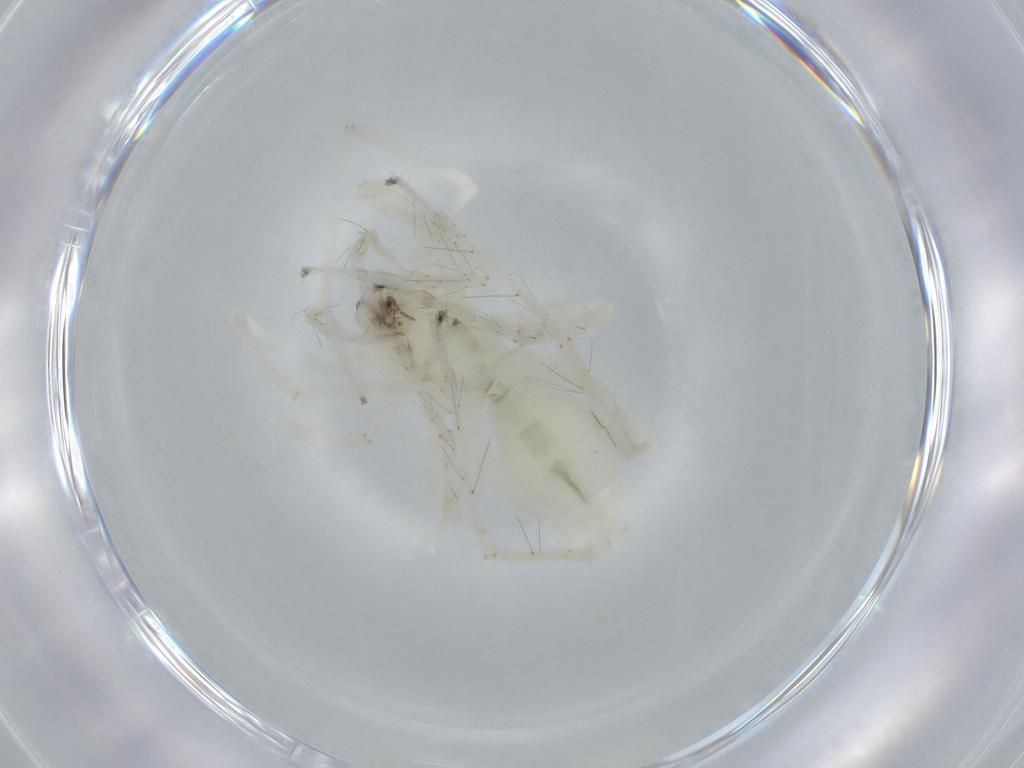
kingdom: Animalia
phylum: Arthropoda
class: Arachnida
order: Araneae
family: Anyphaenidae
